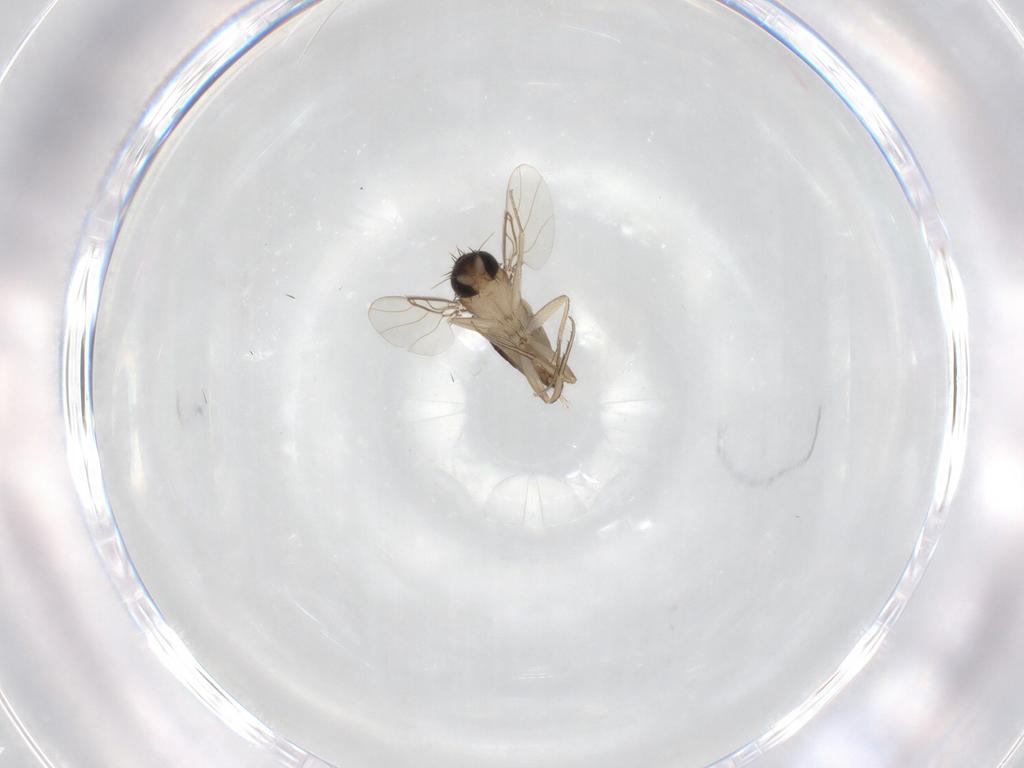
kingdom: Animalia
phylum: Arthropoda
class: Insecta
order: Diptera
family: Phoridae
